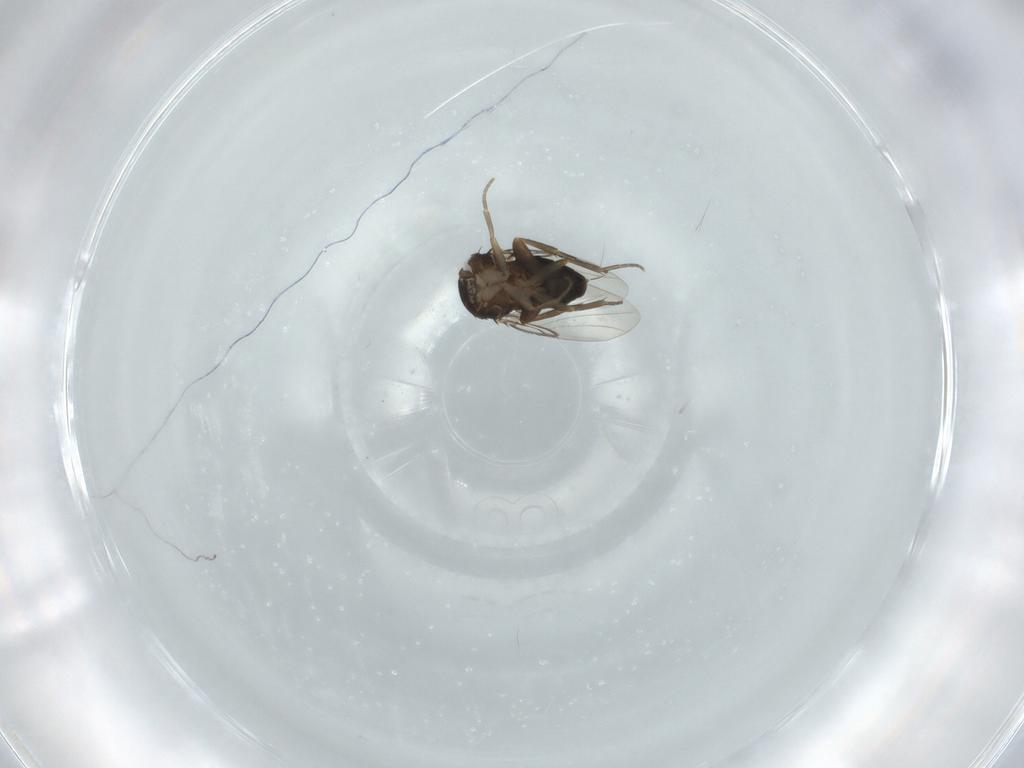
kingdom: Animalia
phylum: Arthropoda
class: Insecta
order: Diptera
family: Phoridae
